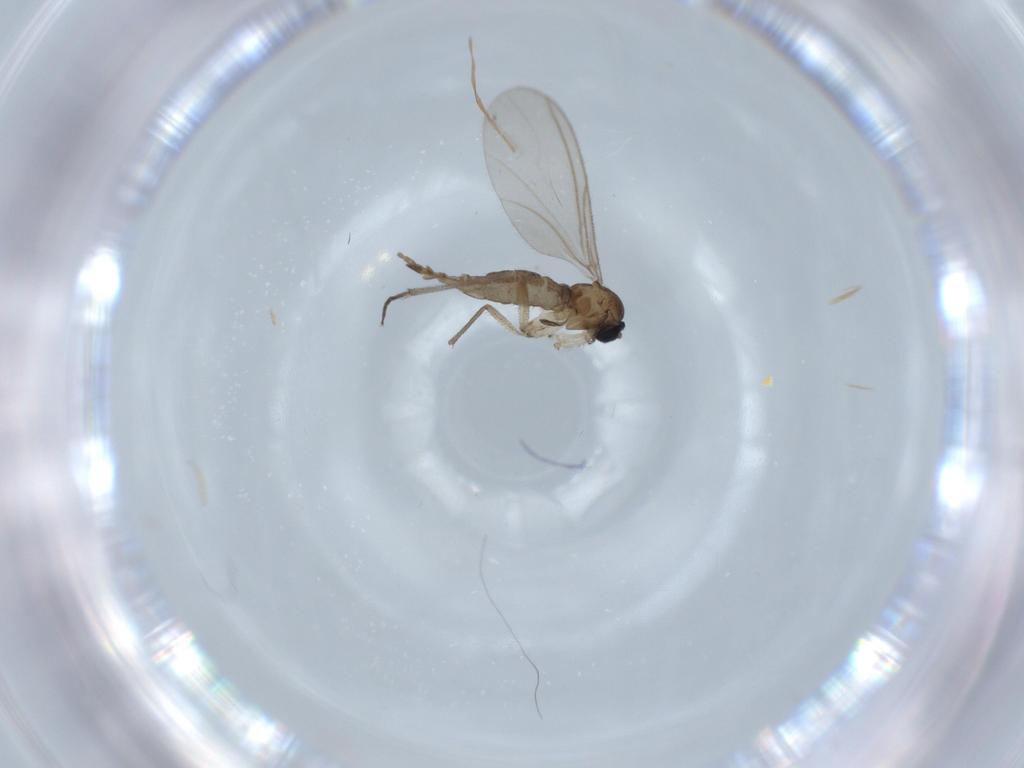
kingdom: Animalia
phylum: Arthropoda
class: Insecta
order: Diptera
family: Sciaridae
